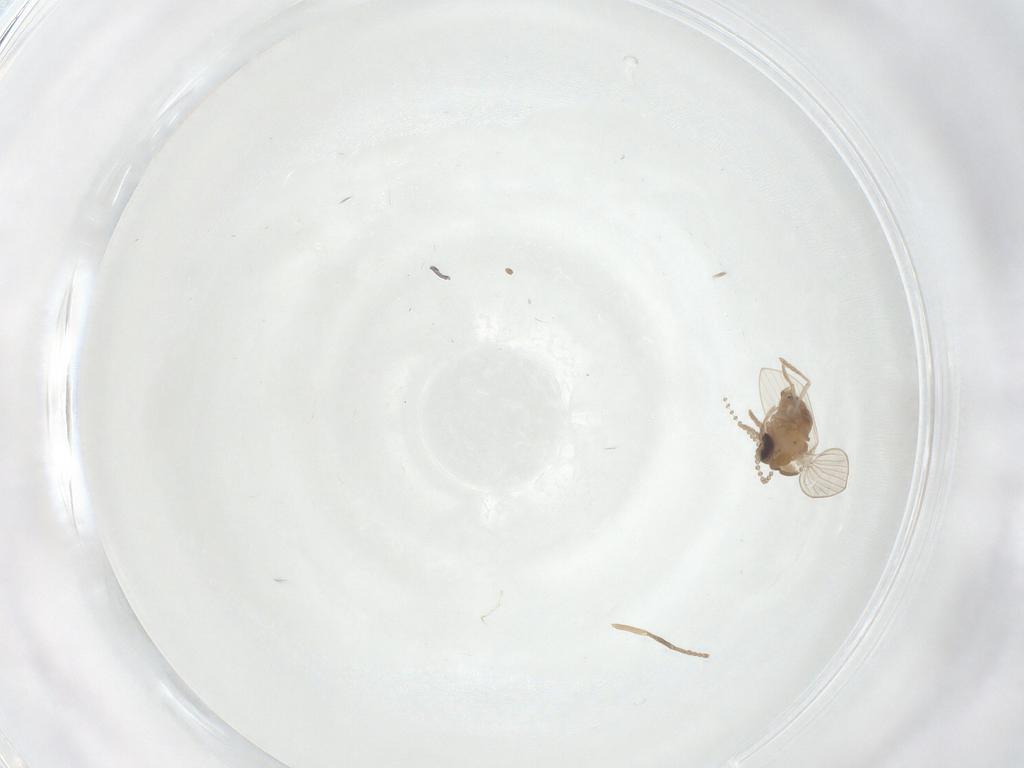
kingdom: Animalia
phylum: Arthropoda
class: Insecta
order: Diptera
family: Psychodidae
